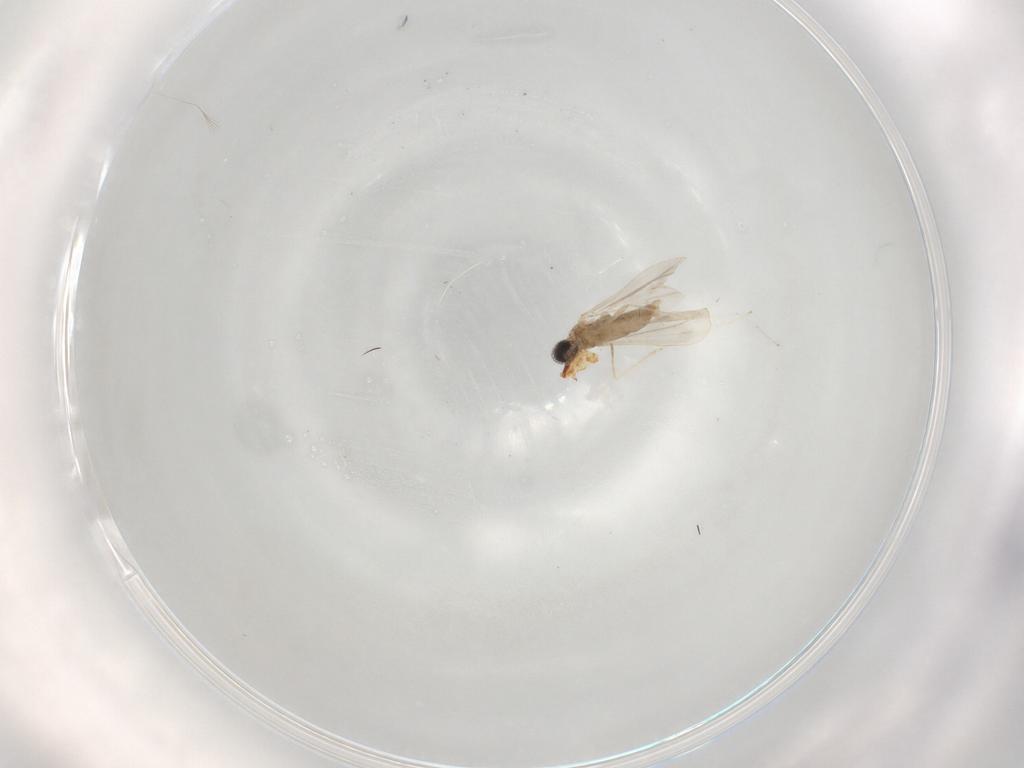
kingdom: Animalia
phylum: Arthropoda
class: Insecta
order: Diptera
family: Cecidomyiidae
